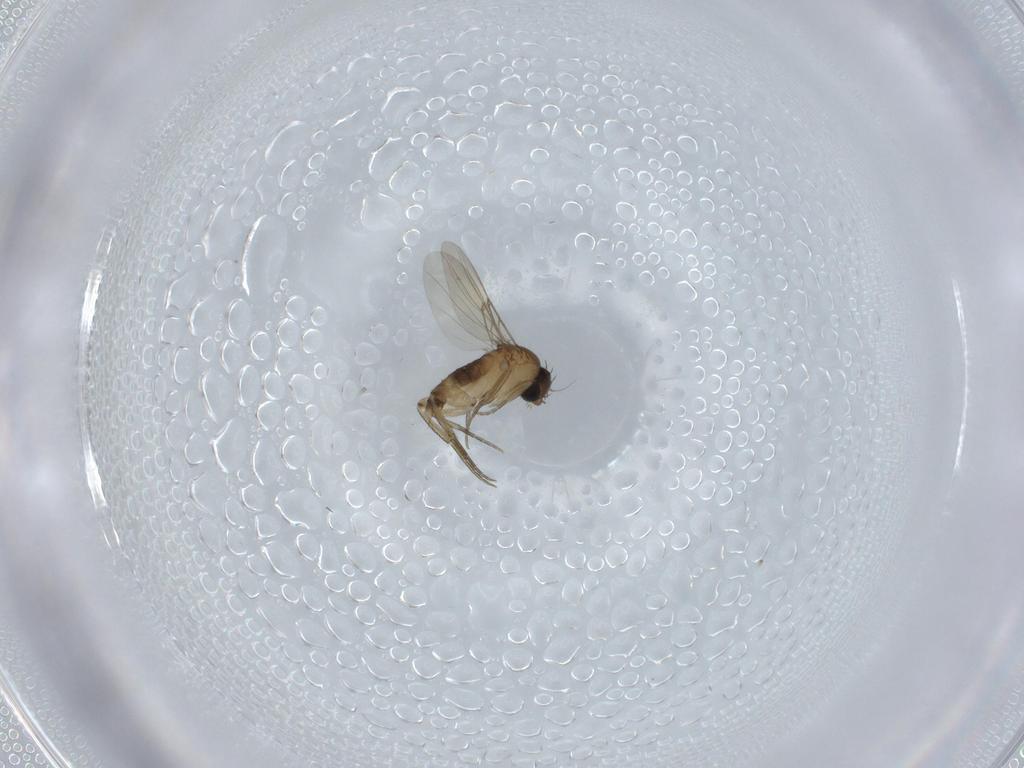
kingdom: Animalia
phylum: Arthropoda
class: Insecta
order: Diptera
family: Phoridae
